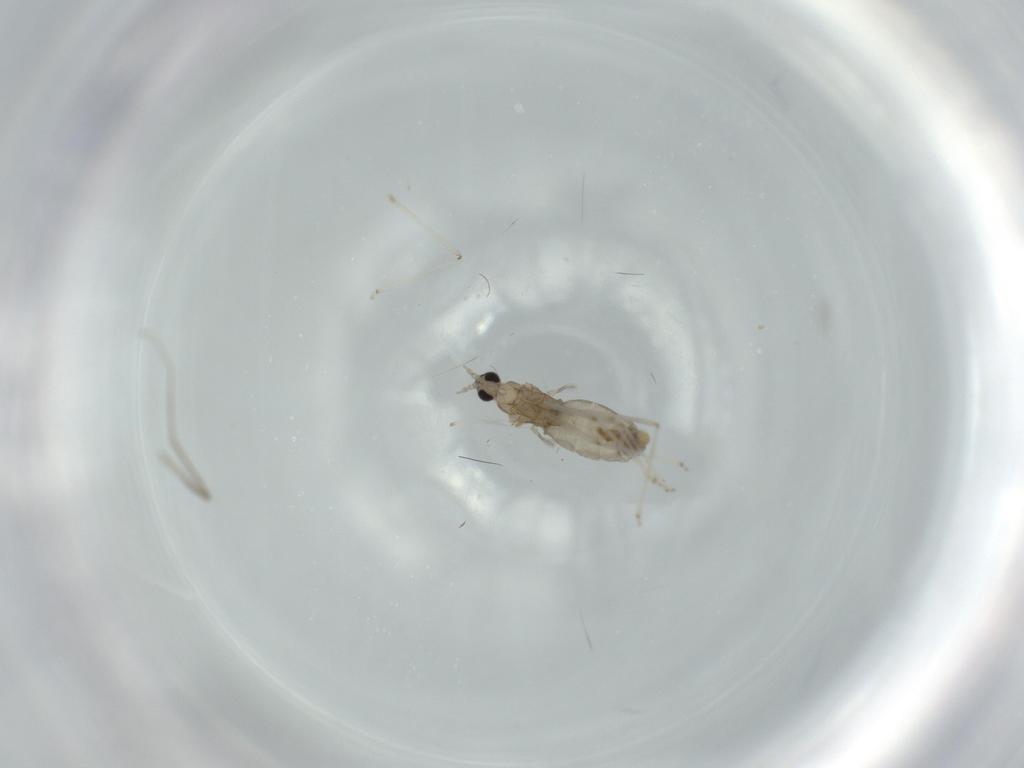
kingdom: Animalia
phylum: Arthropoda
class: Insecta
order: Diptera
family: Cecidomyiidae
